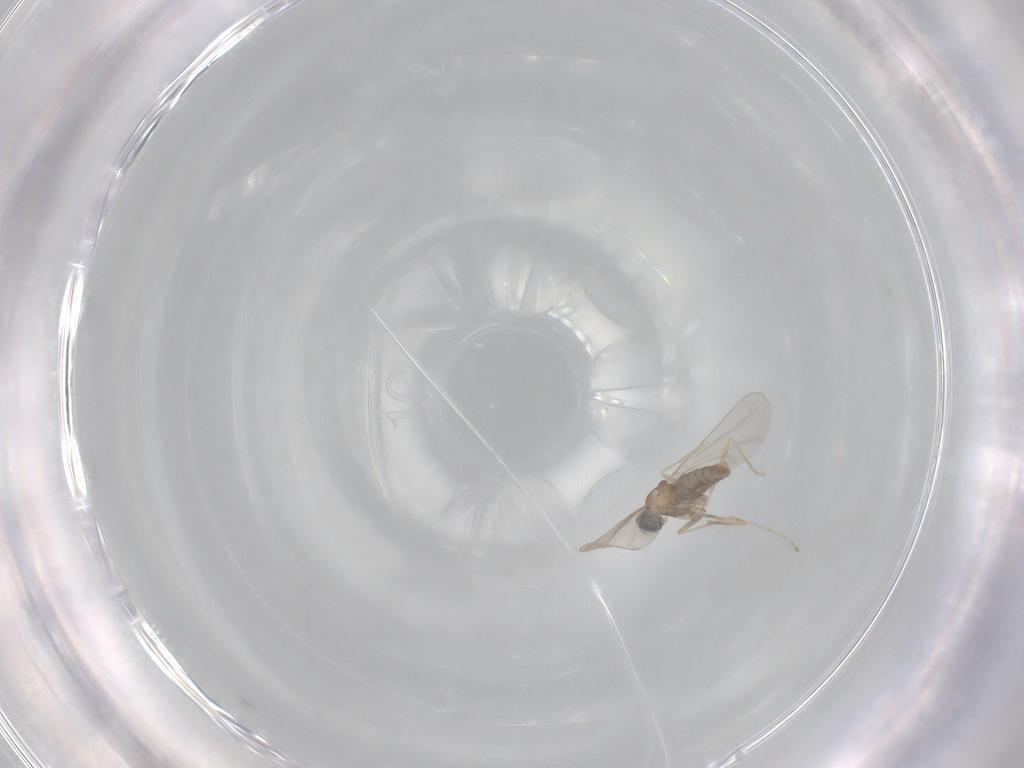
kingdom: Animalia
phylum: Arthropoda
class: Insecta
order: Diptera
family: Cecidomyiidae
